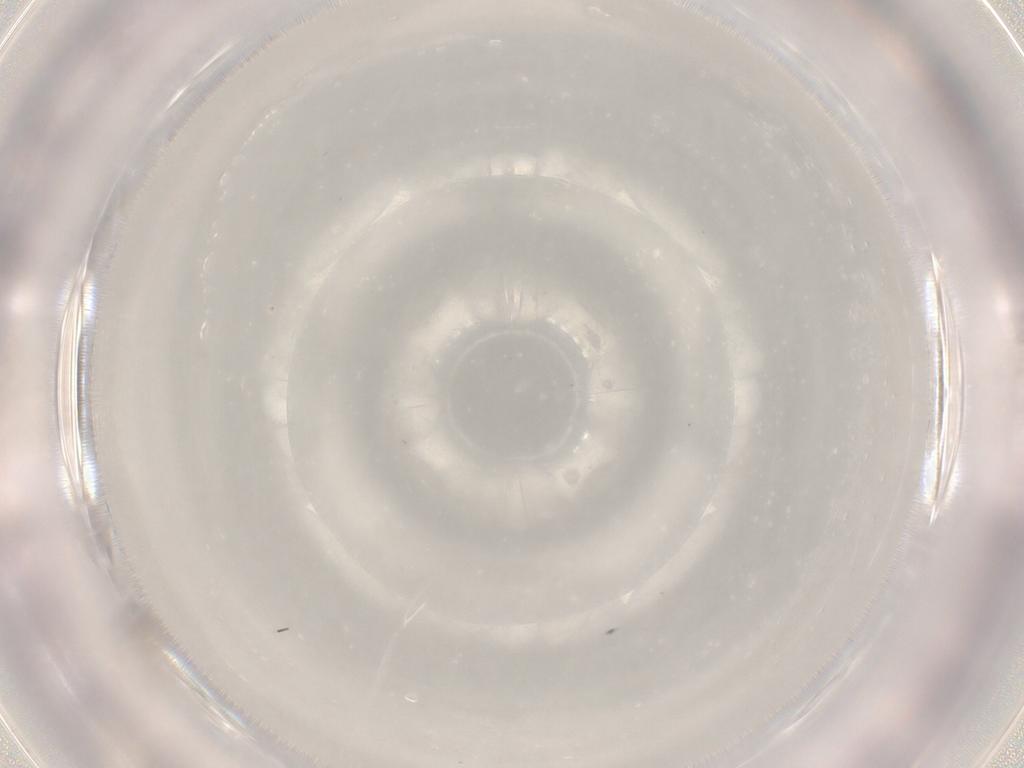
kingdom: Animalia
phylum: Arthropoda
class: Insecta
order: Diptera
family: Cecidomyiidae
